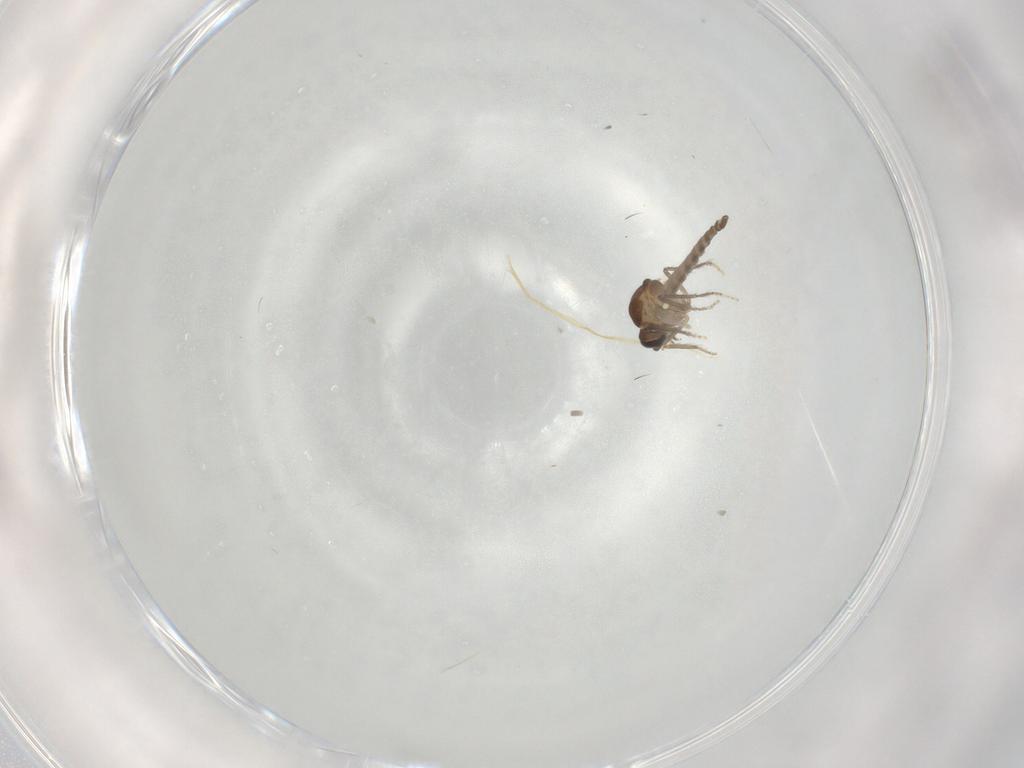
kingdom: Animalia
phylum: Arthropoda
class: Insecta
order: Diptera
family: Ceratopogonidae
